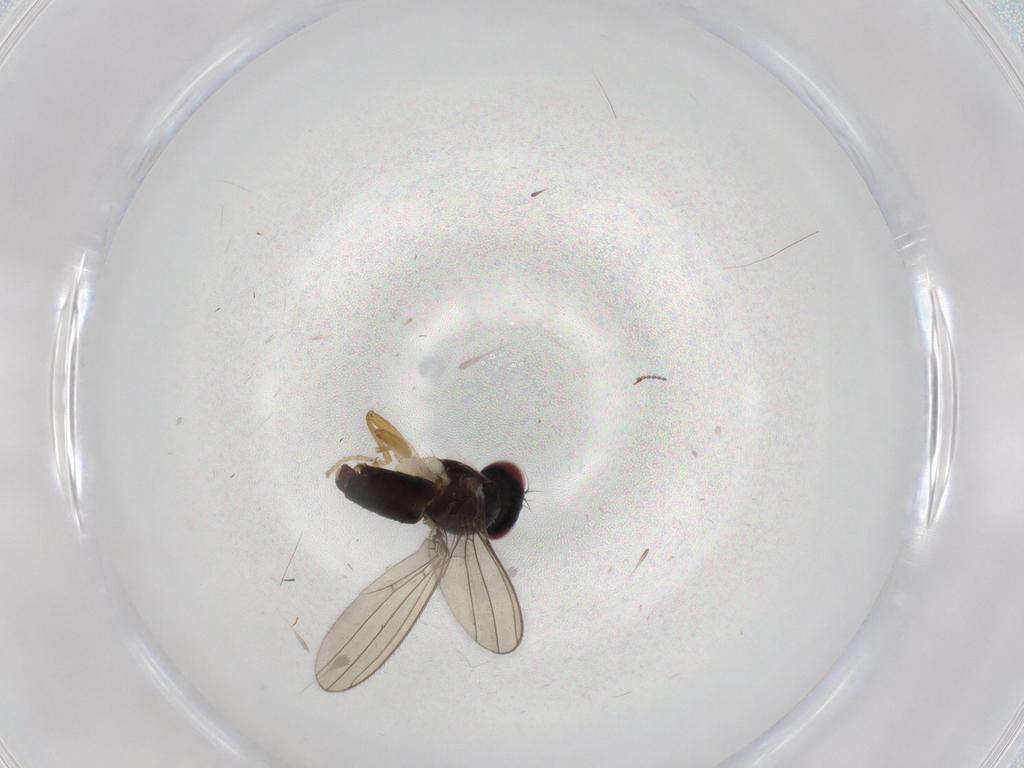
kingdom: Animalia
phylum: Arthropoda
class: Insecta
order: Diptera
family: Anthomyzidae
